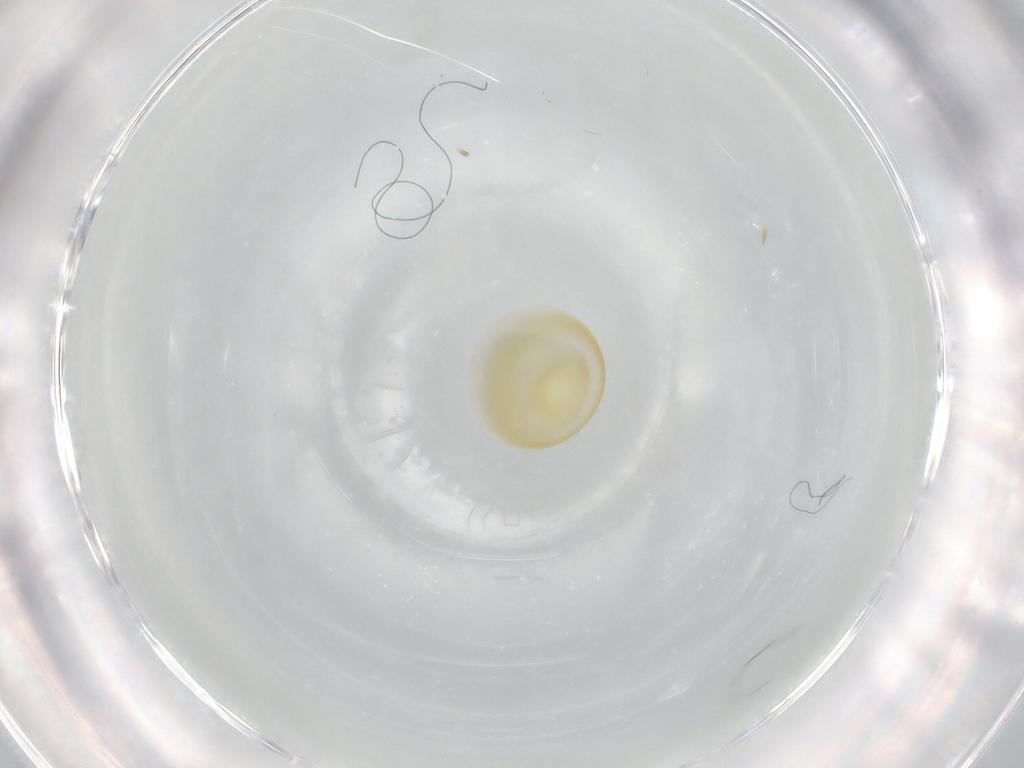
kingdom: Animalia
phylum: Arthropoda
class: Insecta
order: Lepidoptera
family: Erebidae
